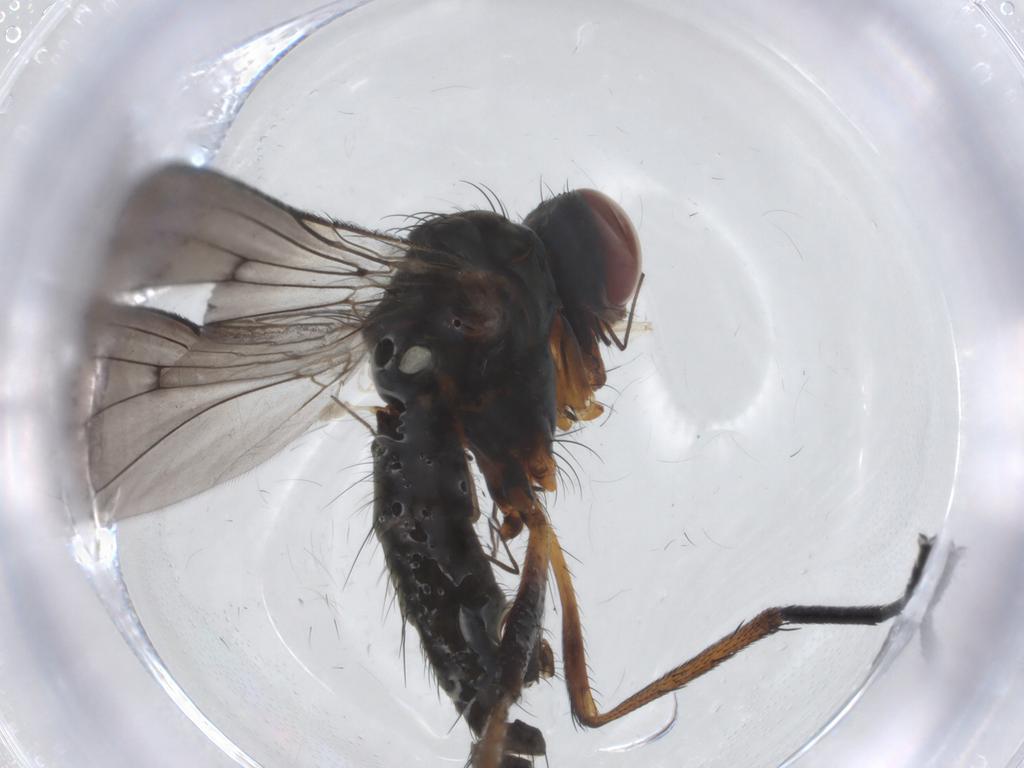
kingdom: Animalia
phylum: Arthropoda
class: Insecta
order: Diptera
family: Anthomyiidae
